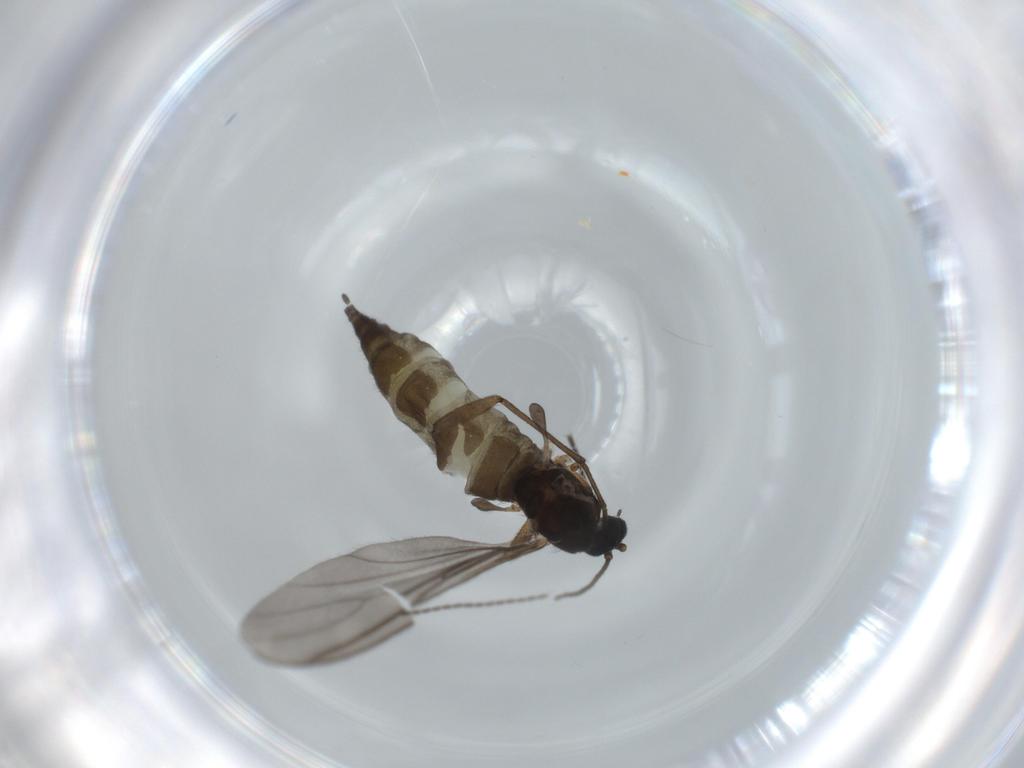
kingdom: Animalia
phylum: Arthropoda
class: Insecta
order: Diptera
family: Sciaridae
